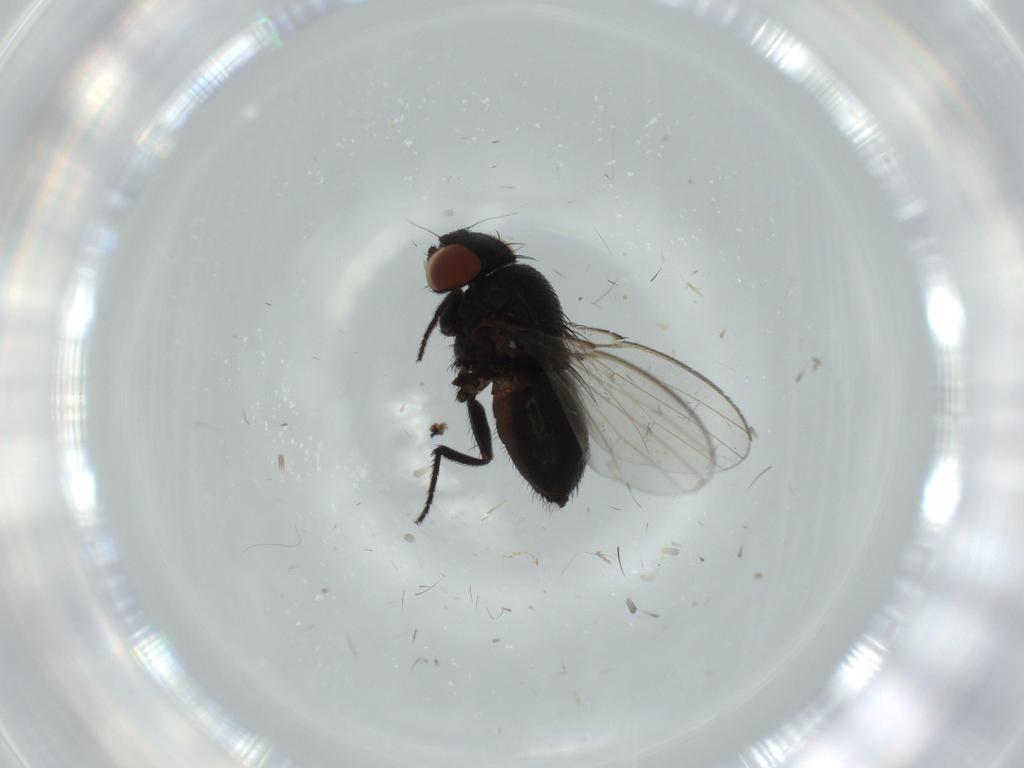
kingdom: Animalia
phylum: Arthropoda
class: Insecta
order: Diptera
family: Milichiidae
